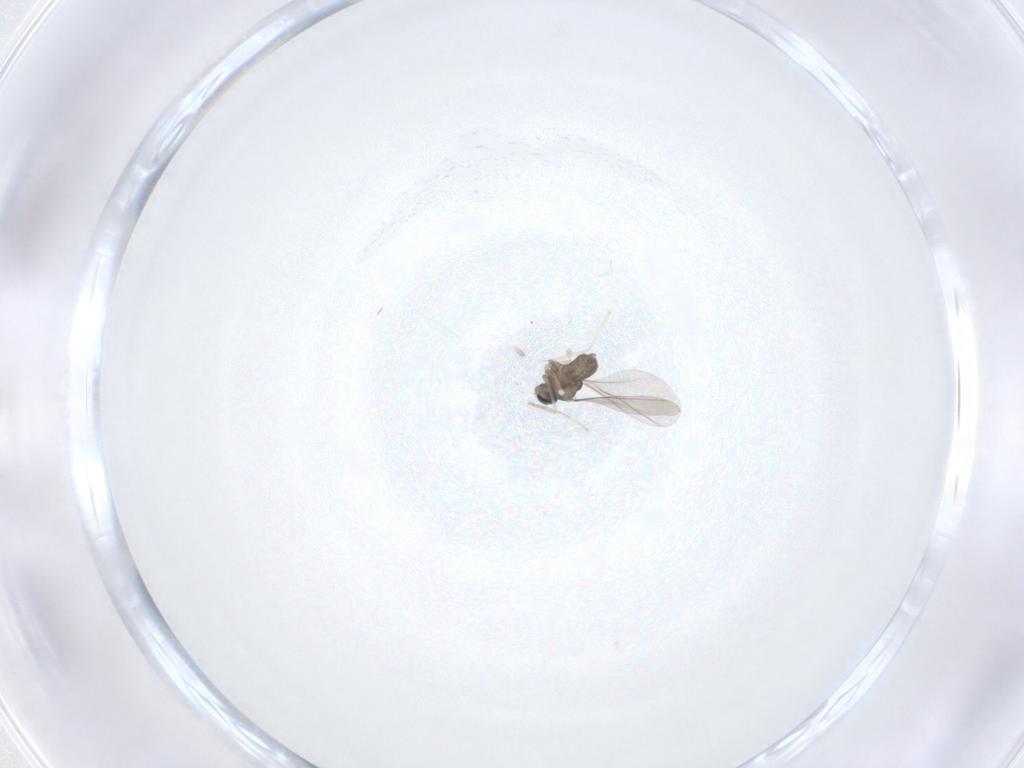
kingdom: Animalia
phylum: Arthropoda
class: Insecta
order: Diptera
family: Cecidomyiidae
